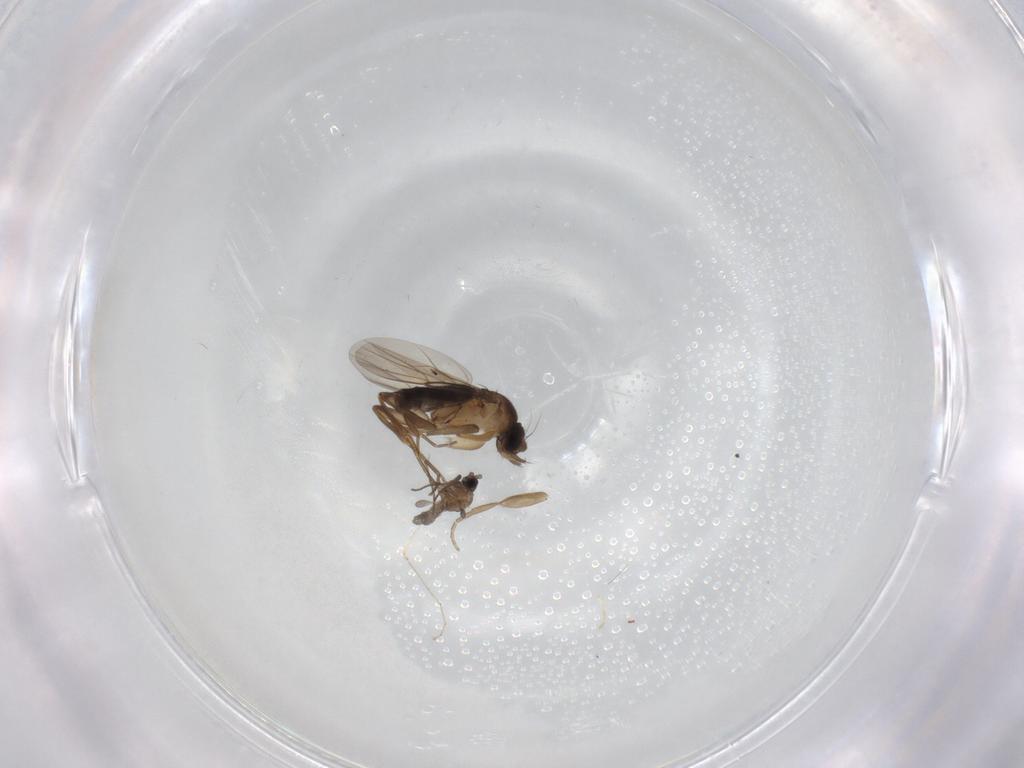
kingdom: Animalia
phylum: Arthropoda
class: Insecta
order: Diptera
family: Phoridae
